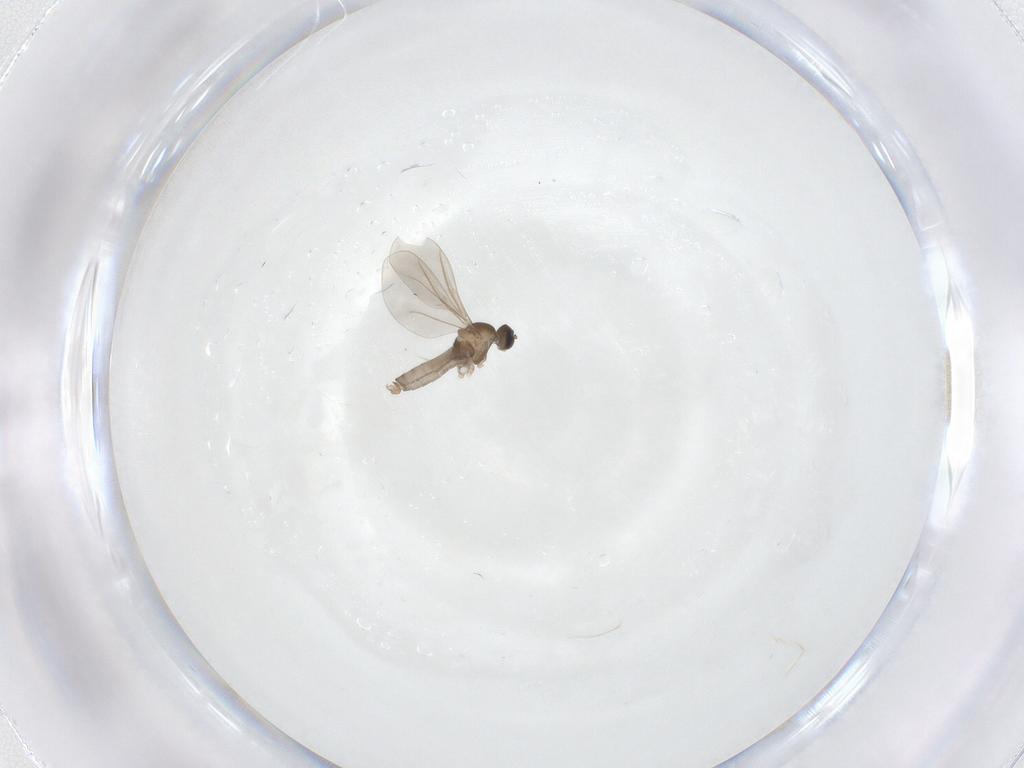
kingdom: Animalia
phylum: Arthropoda
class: Insecta
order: Diptera
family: Cecidomyiidae
